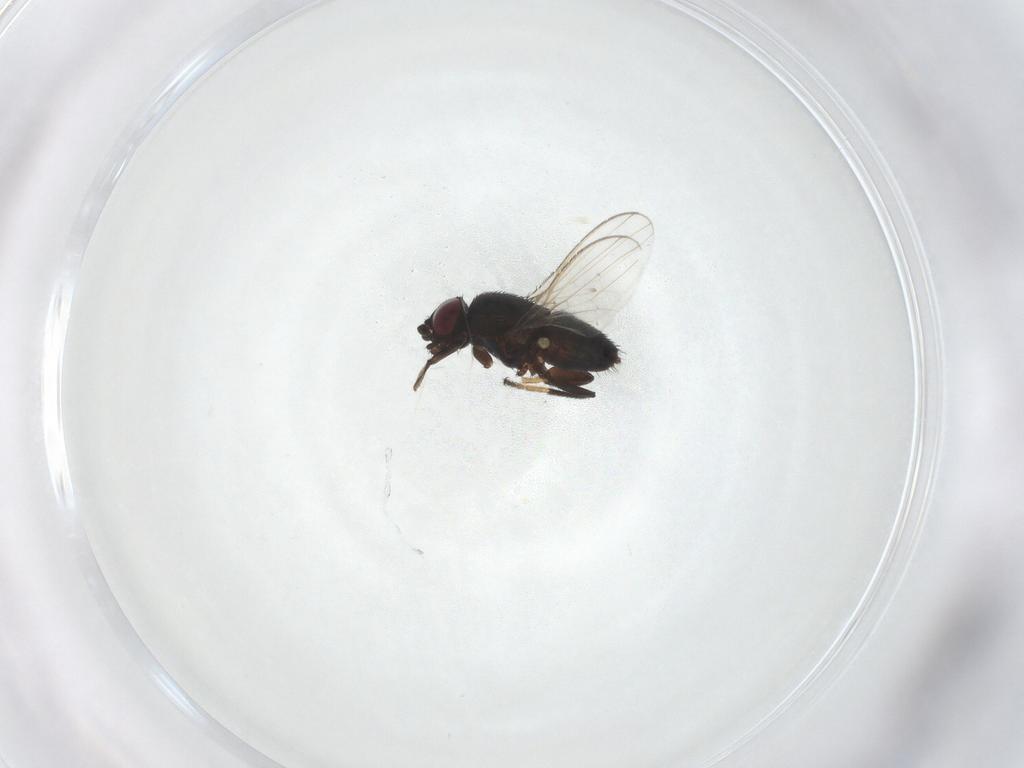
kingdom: Animalia
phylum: Arthropoda
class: Insecta
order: Diptera
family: Milichiidae
